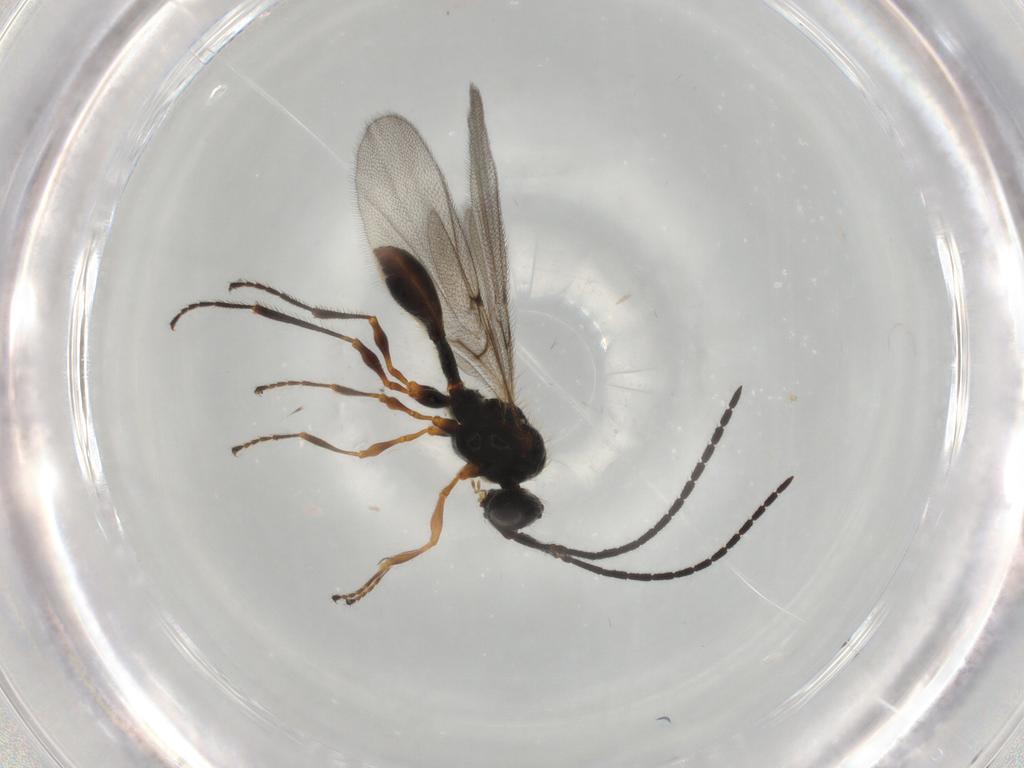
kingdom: Animalia
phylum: Arthropoda
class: Insecta
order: Hymenoptera
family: Diapriidae
